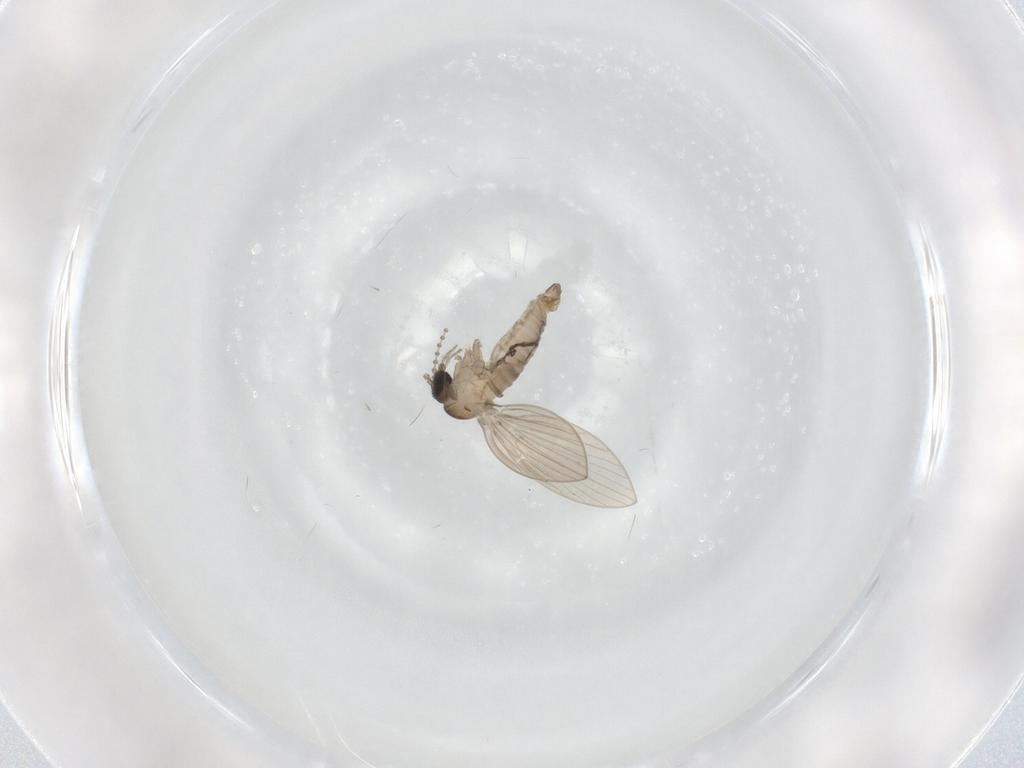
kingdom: Animalia
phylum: Arthropoda
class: Insecta
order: Diptera
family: Psychodidae
